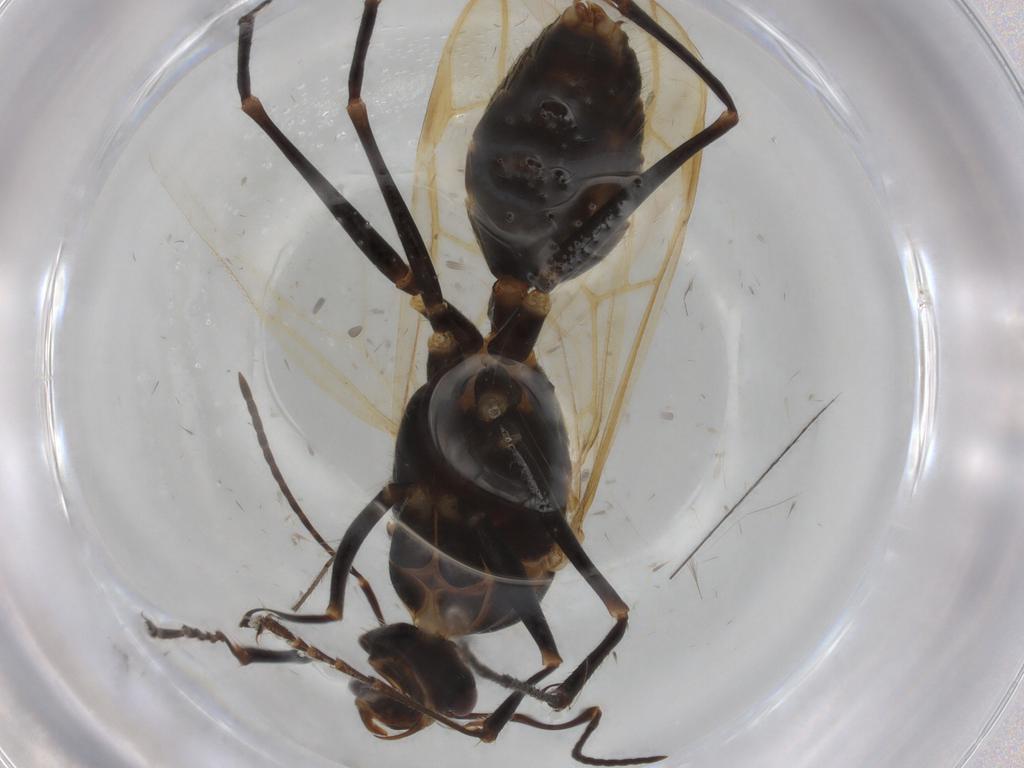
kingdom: Animalia
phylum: Arthropoda
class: Insecta
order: Hymenoptera
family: Formicidae
